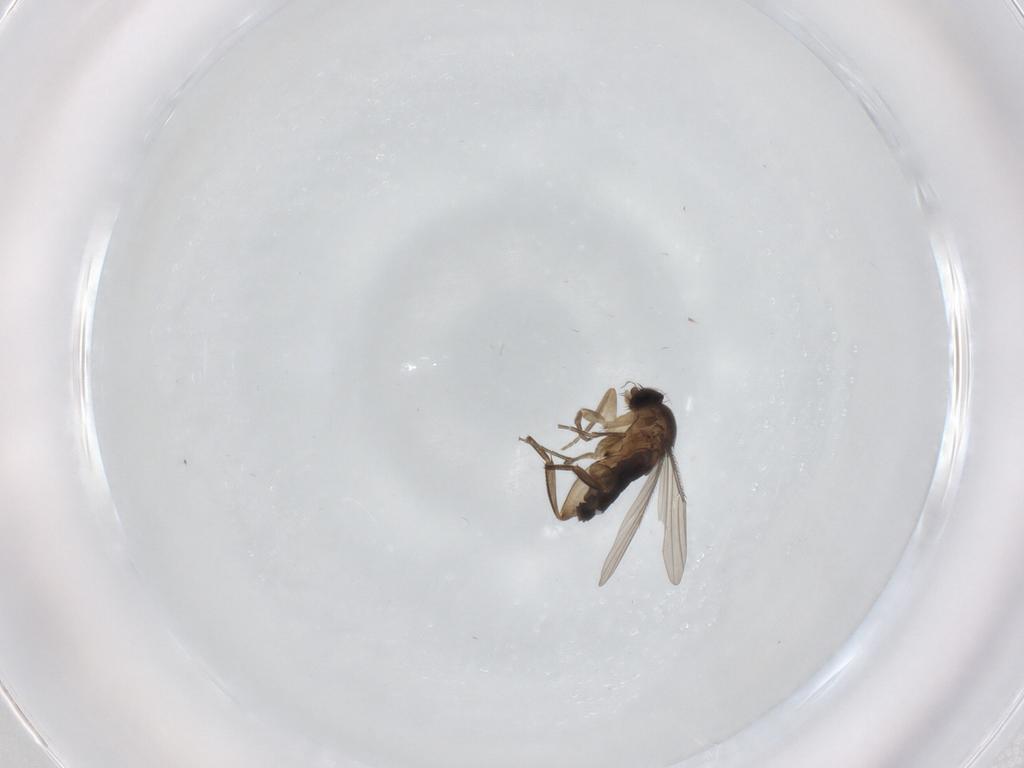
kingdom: Animalia
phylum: Arthropoda
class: Insecta
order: Diptera
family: Phoridae
